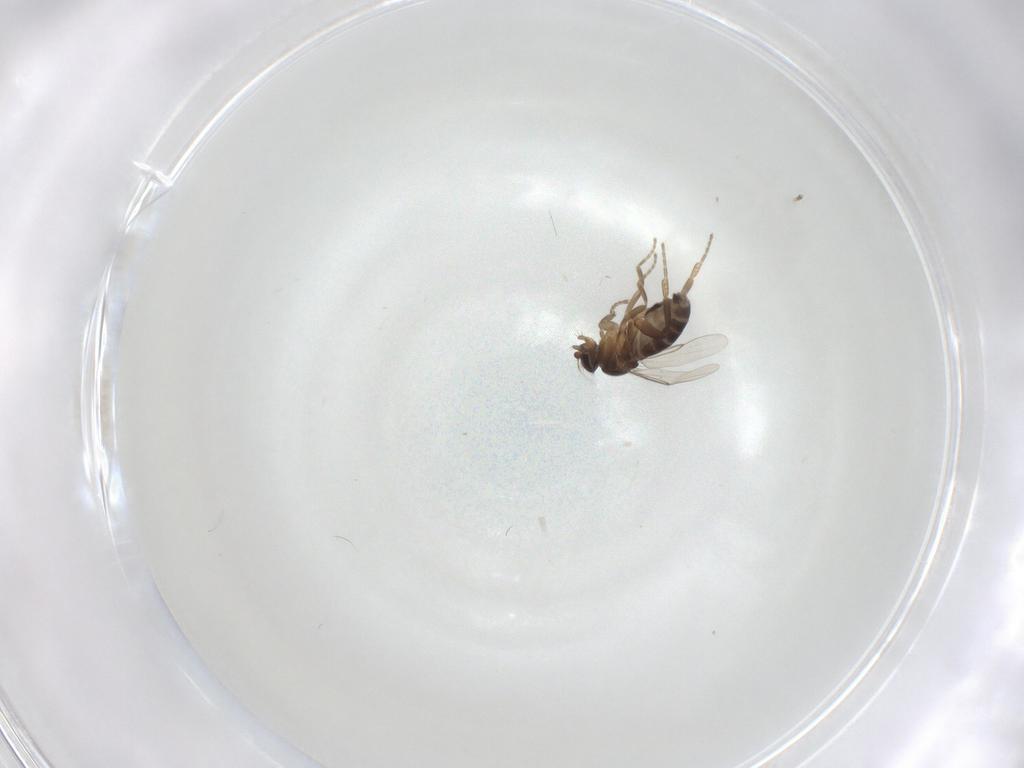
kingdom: Animalia
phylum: Arthropoda
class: Insecta
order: Diptera
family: Phoridae
